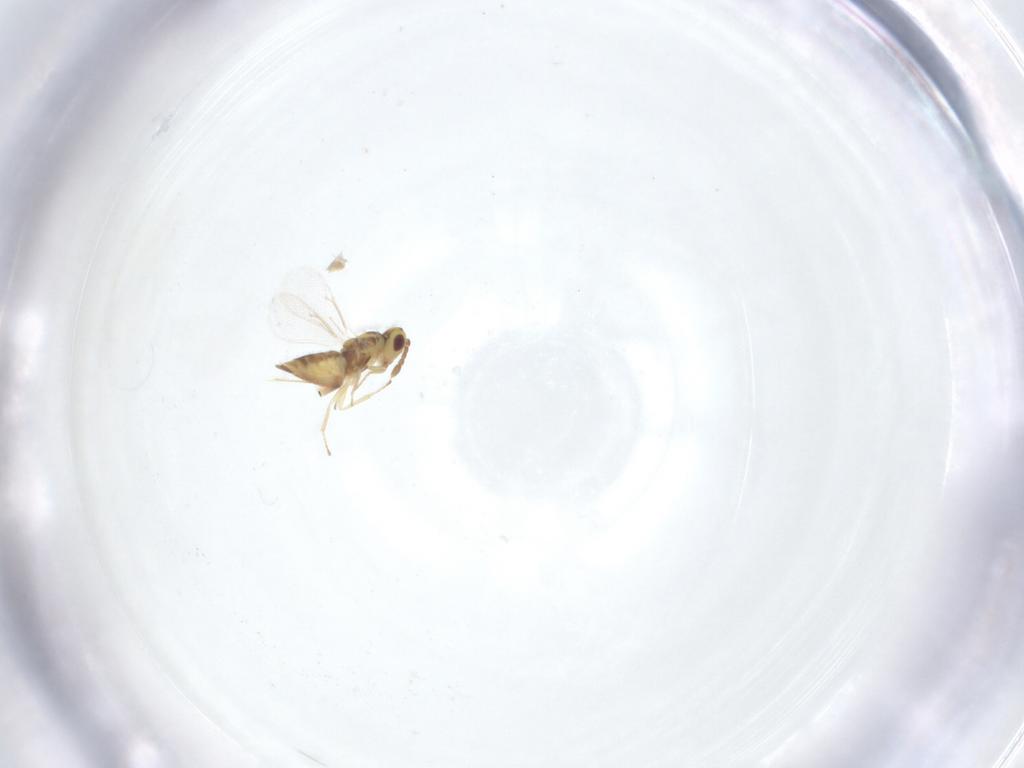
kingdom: Animalia
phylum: Arthropoda
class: Insecta
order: Hymenoptera
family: Eulophidae
